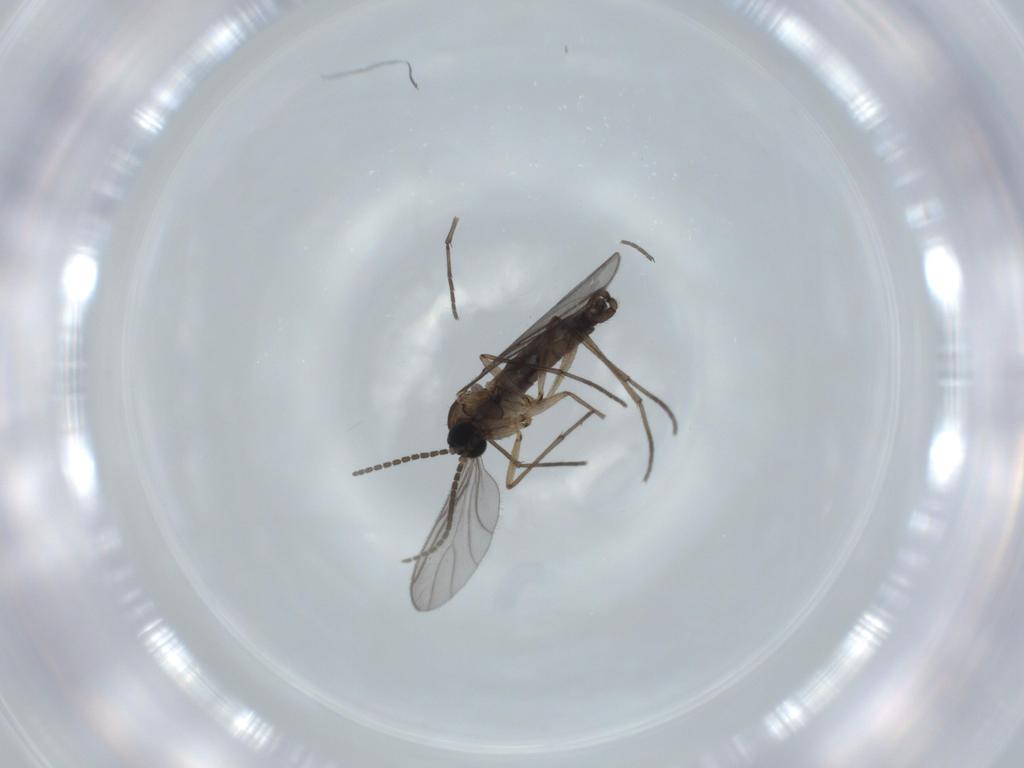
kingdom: Animalia
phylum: Arthropoda
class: Insecta
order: Diptera
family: Sciaridae
